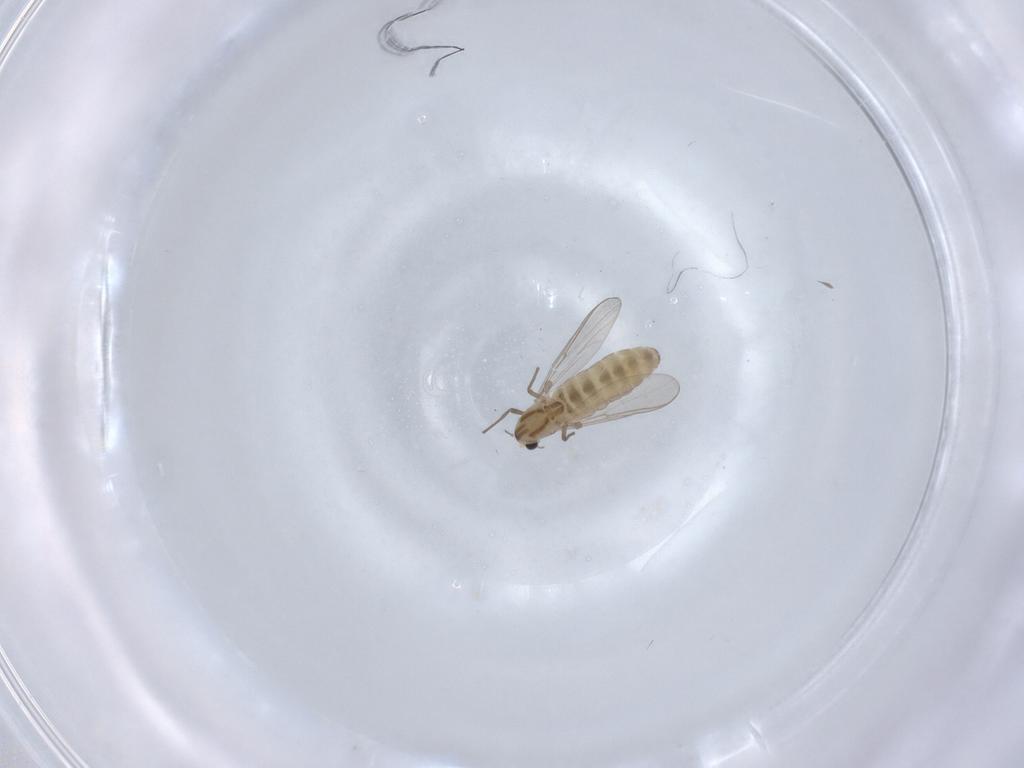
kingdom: Animalia
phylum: Arthropoda
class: Insecta
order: Diptera
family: Chironomidae
